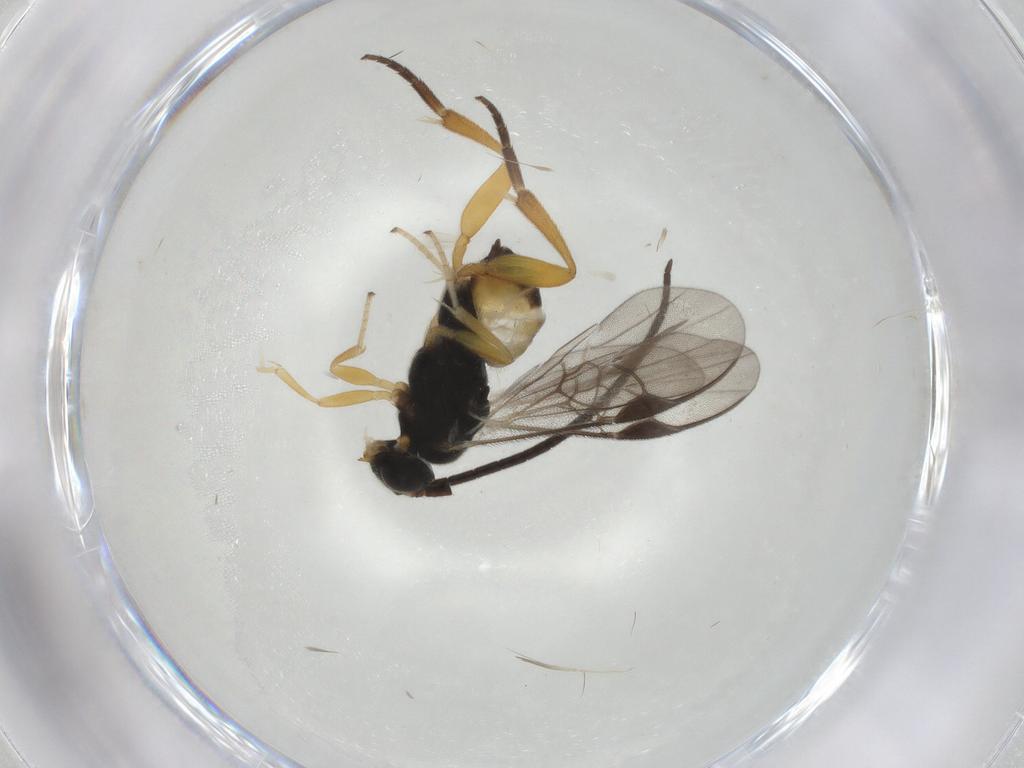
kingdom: Animalia
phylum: Arthropoda
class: Insecta
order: Hymenoptera
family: Braconidae
